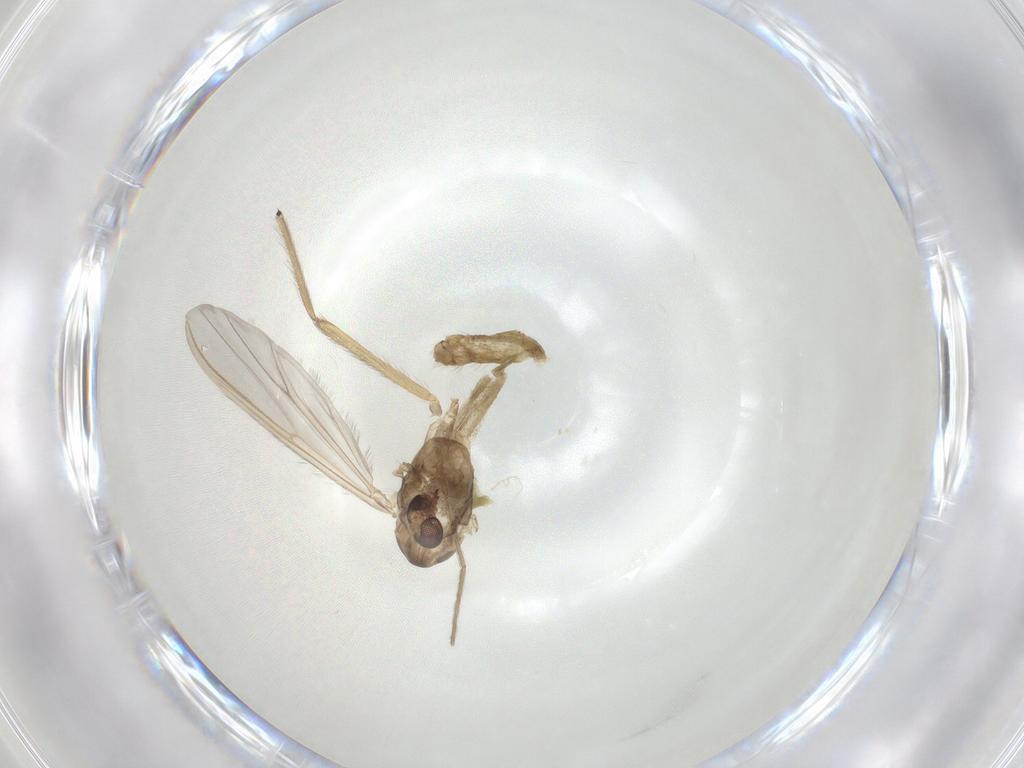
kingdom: Animalia
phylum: Arthropoda
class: Insecta
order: Diptera
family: Chironomidae
